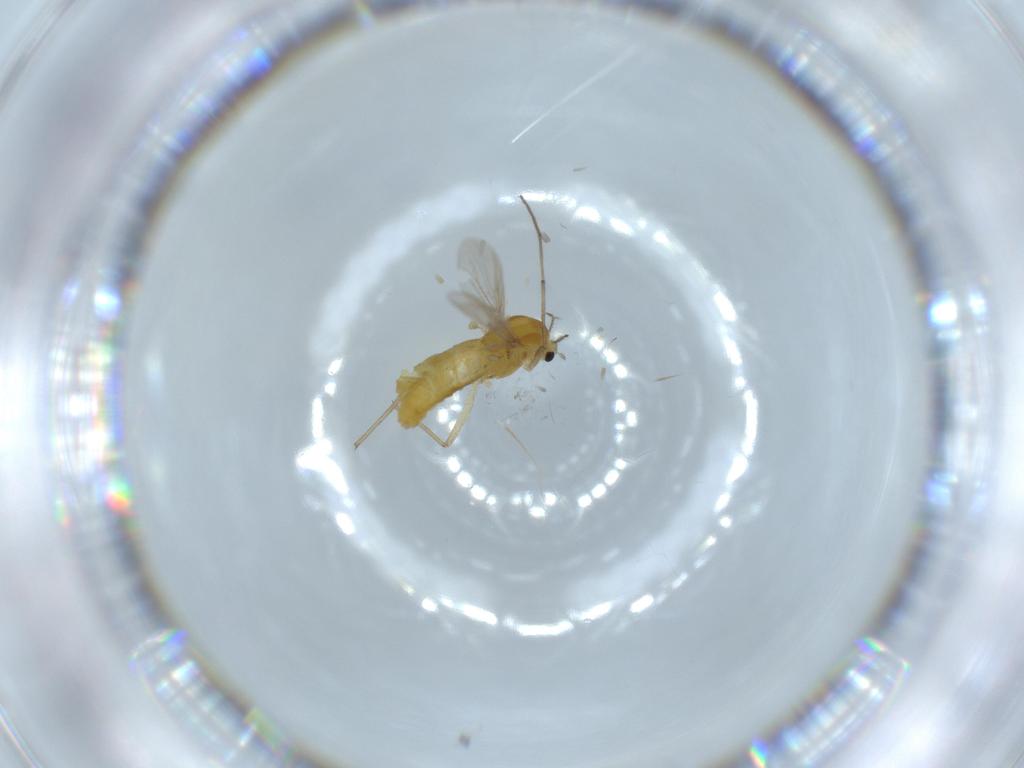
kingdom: Animalia
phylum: Arthropoda
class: Insecta
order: Diptera
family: Chironomidae
